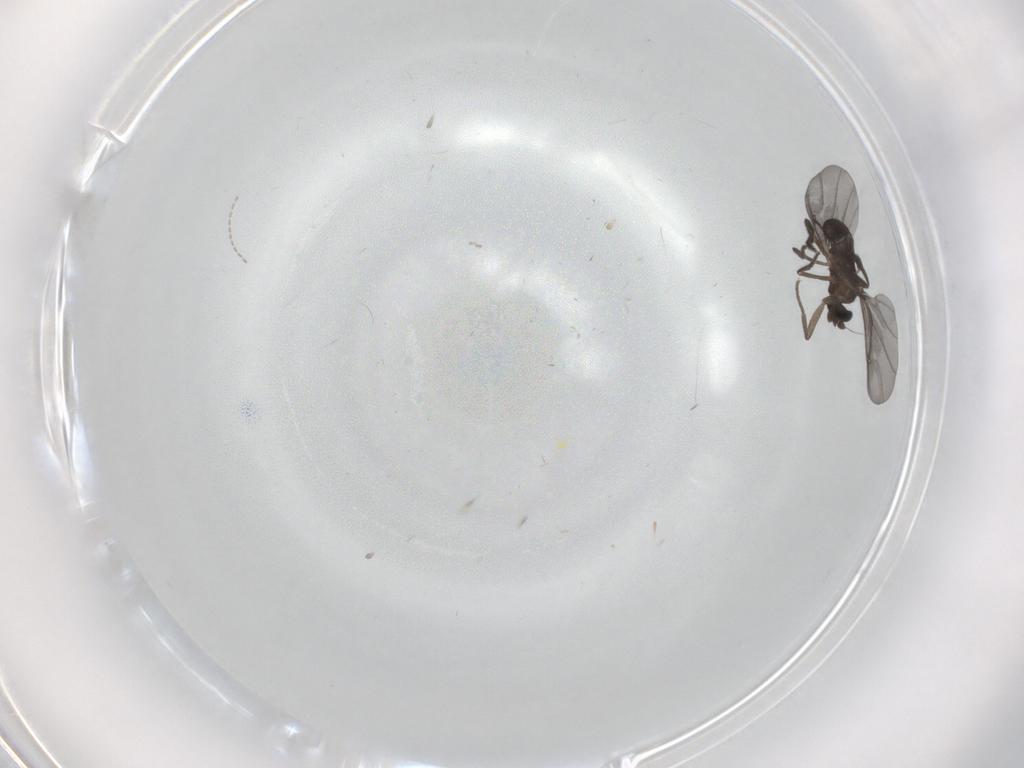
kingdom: Animalia
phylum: Arthropoda
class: Insecta
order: Diptera
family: Phoridae
